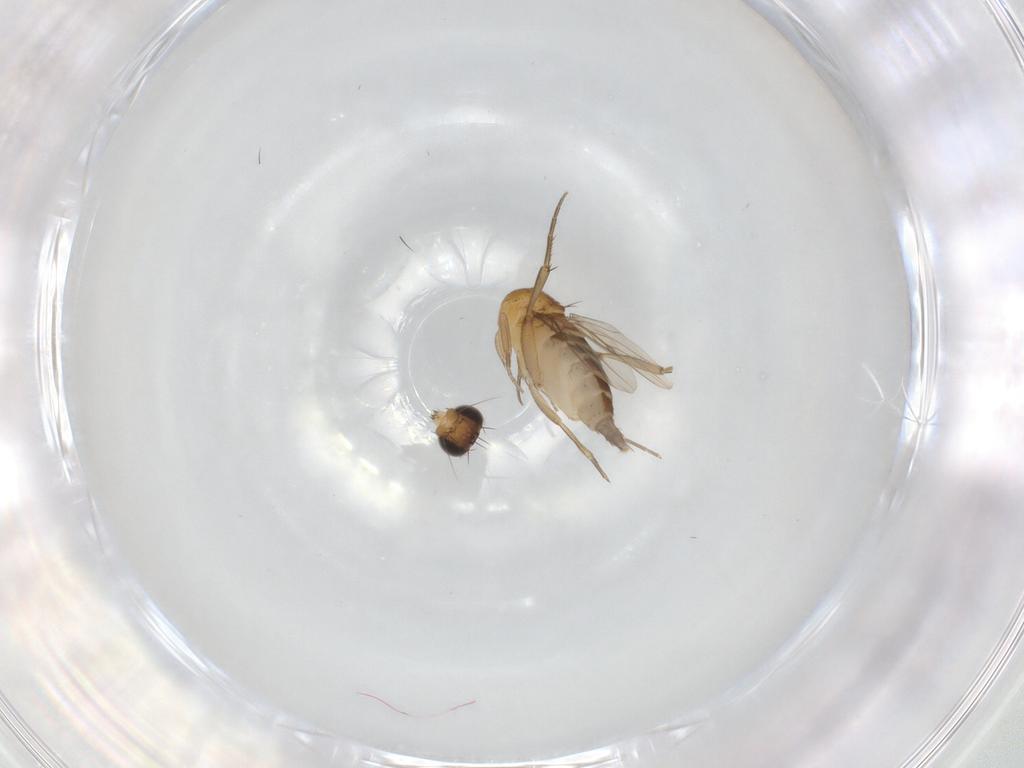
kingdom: Animalia
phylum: Arthropoda
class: Insecta
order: Diptera
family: Phoridae
